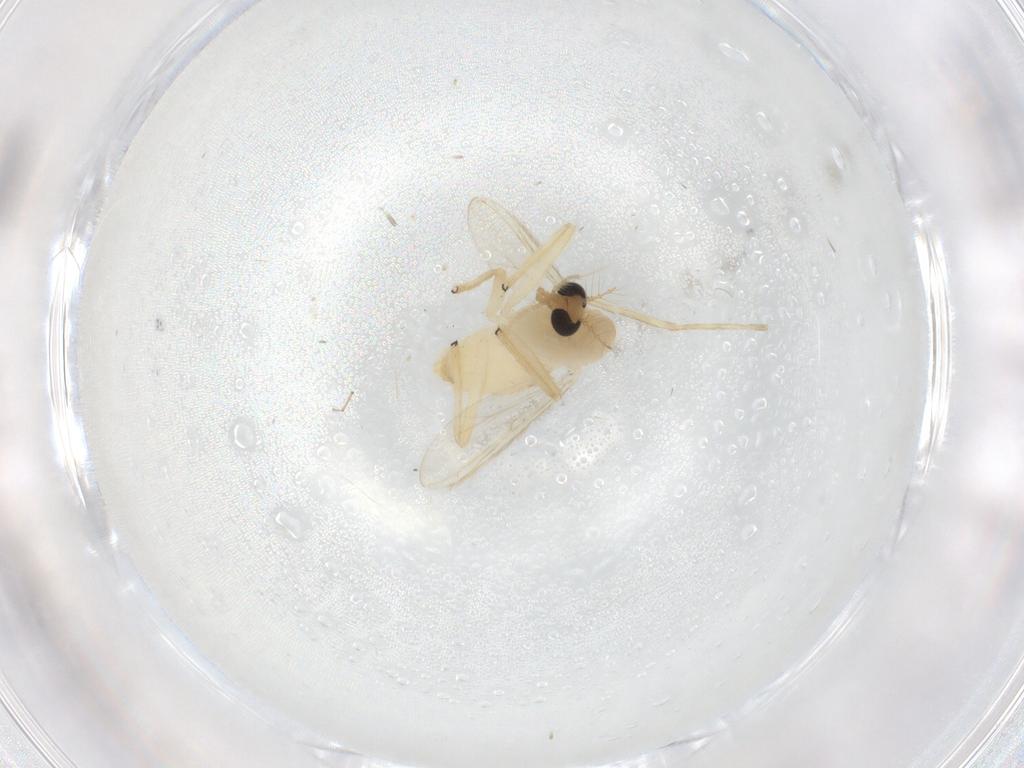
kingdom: Animalia
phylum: Arthropoda
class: Insecta
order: Diptera
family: Chironomidae
